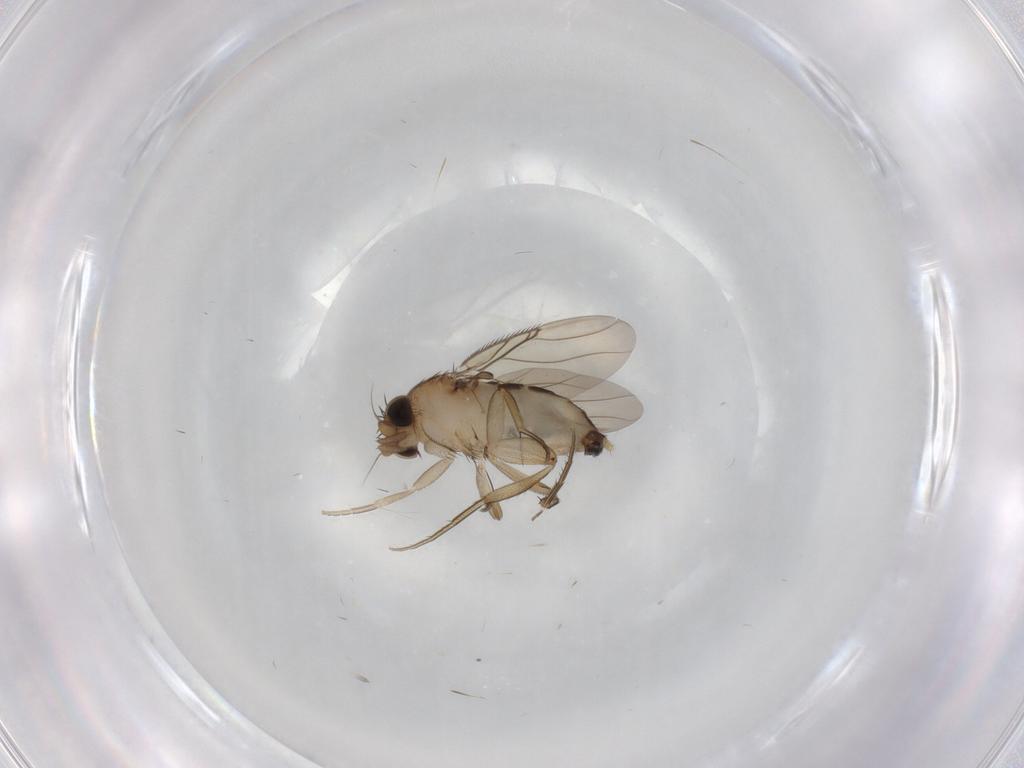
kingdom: Animalia
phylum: Arthropoda
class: Insecta
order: Diptera
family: Phoridae
